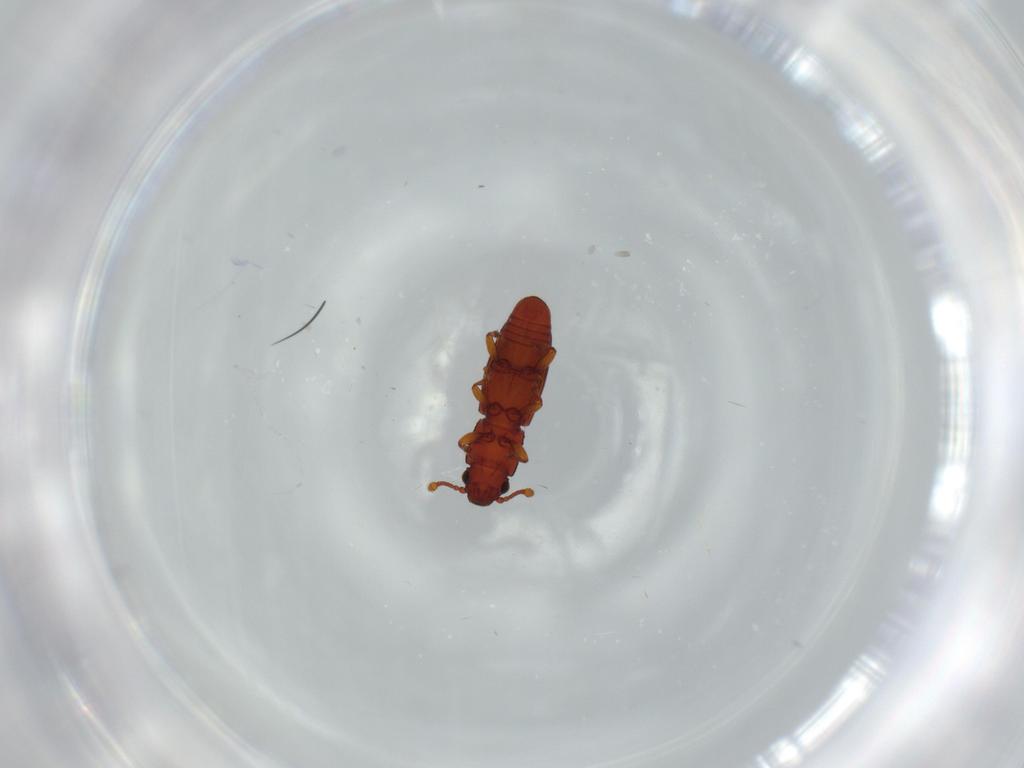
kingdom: Animalia
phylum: Arthropoda
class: Insecta
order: Coleoptera
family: Monotomidae
